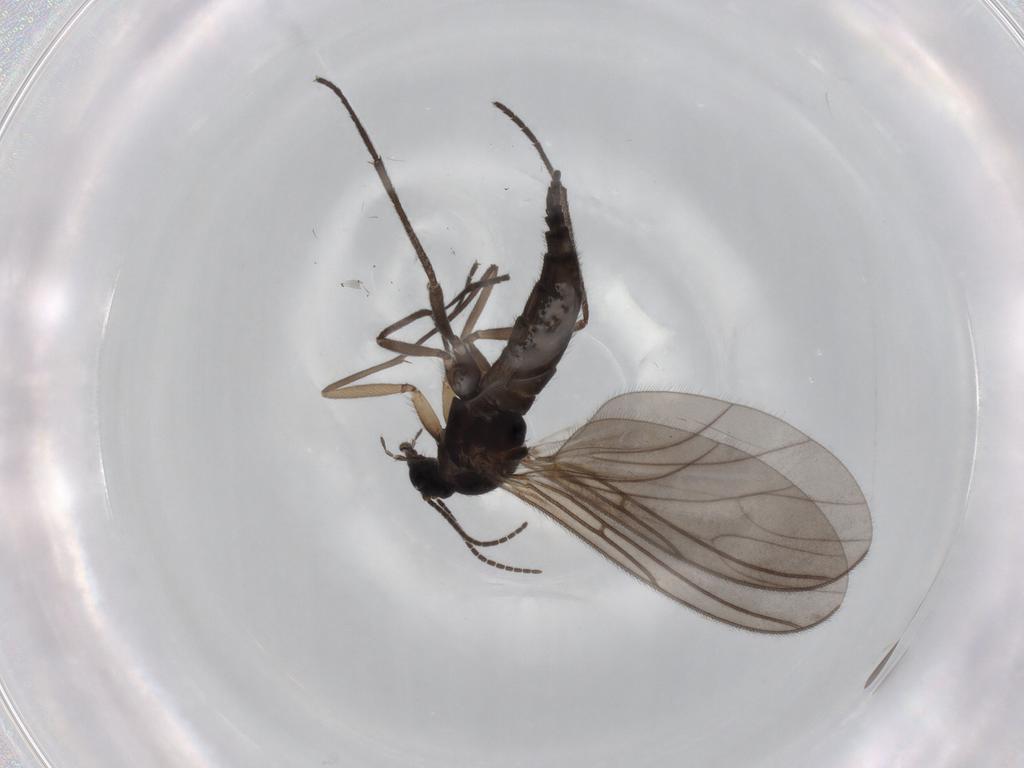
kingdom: Animalia
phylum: Arthropoda
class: Insecta
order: Diptera
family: Sciaridae
